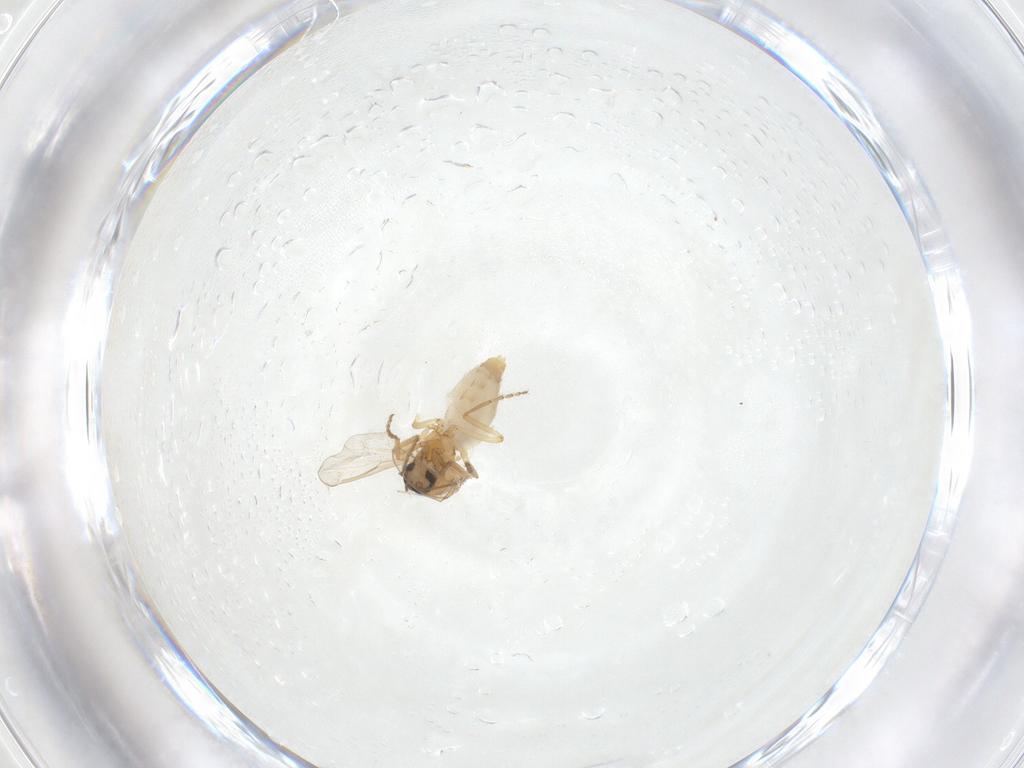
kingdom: Animalia
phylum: Arthropoda
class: Insecta
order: Diptera
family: Ceratopogonidae
